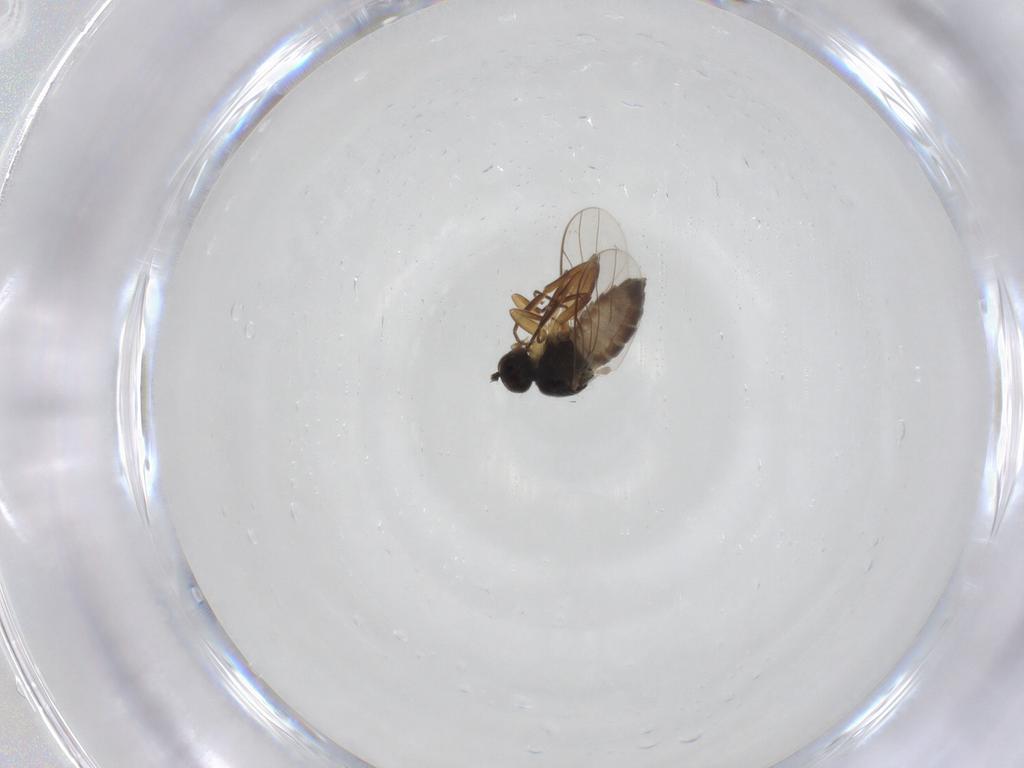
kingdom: Animalia
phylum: Arthropoda
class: Insecta
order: Diptera
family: Hybotidae
